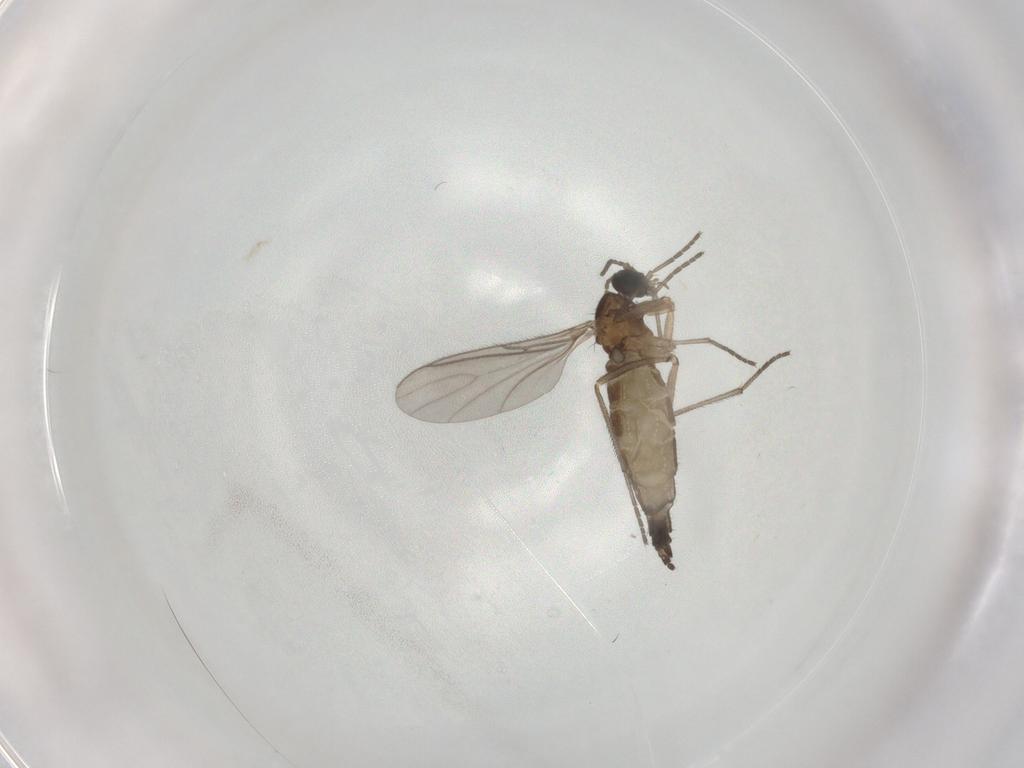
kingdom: Animalia
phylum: Arthropoda
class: Insecta
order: Diptera
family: Sciaridae
